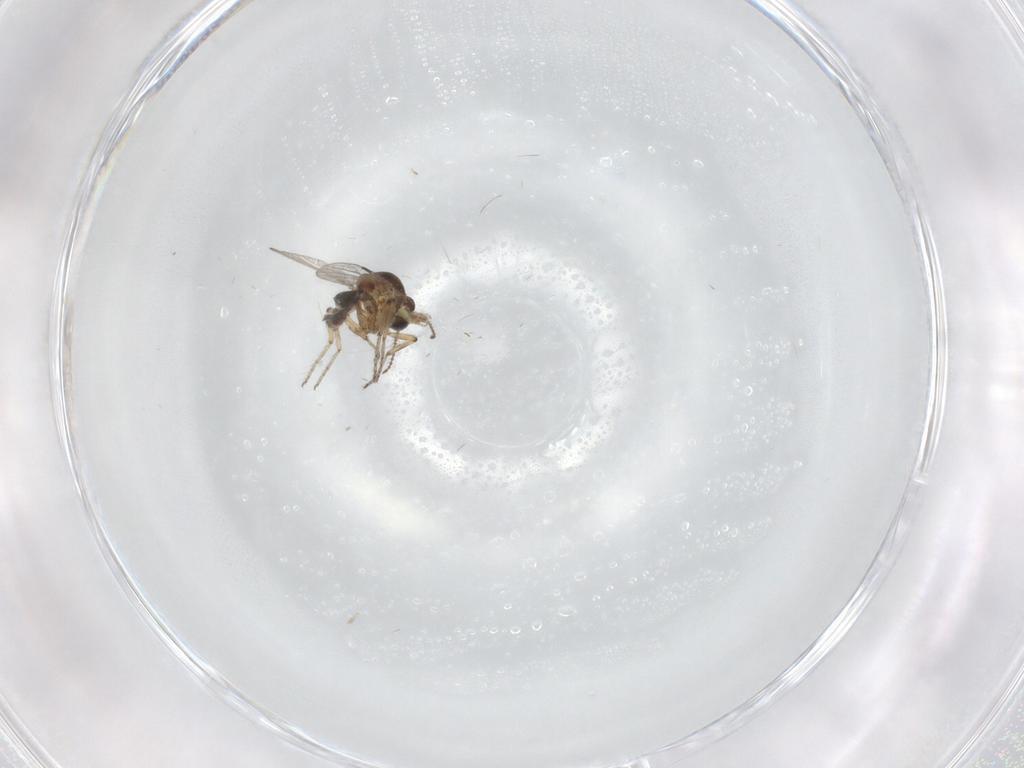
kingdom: Animalia
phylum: Arthropoda
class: Insecta
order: Diptera
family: Ceratopogonidae
